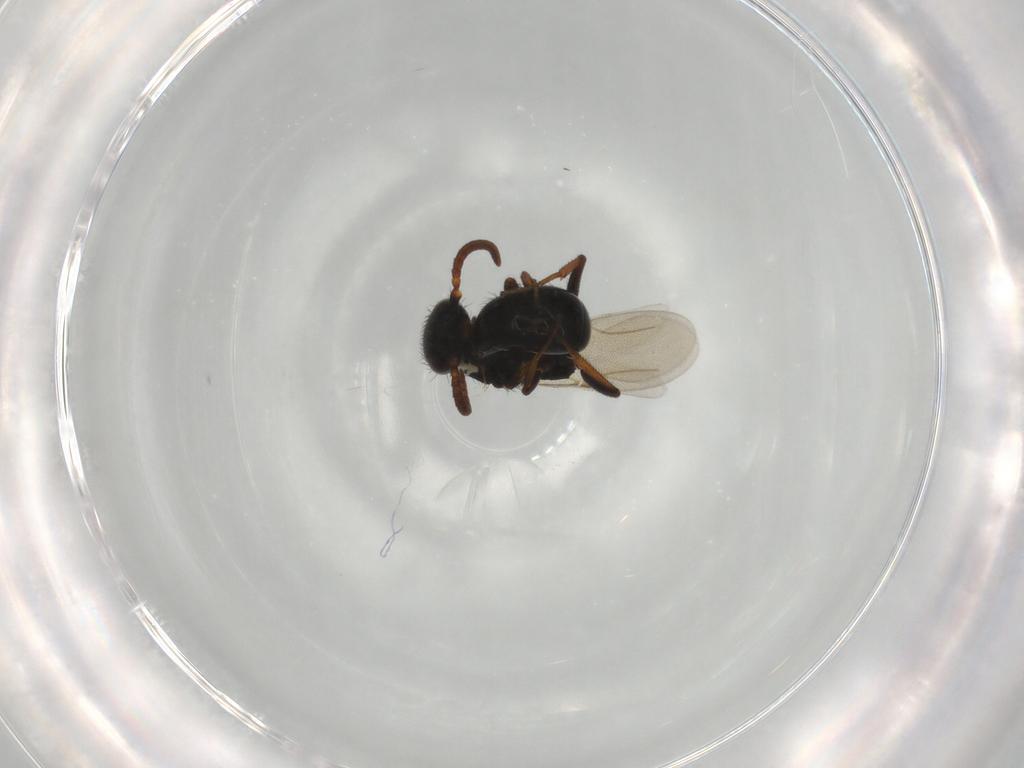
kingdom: Animalia
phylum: Arthropoda
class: Insecta
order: Hymenoptera
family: Bethylidae
